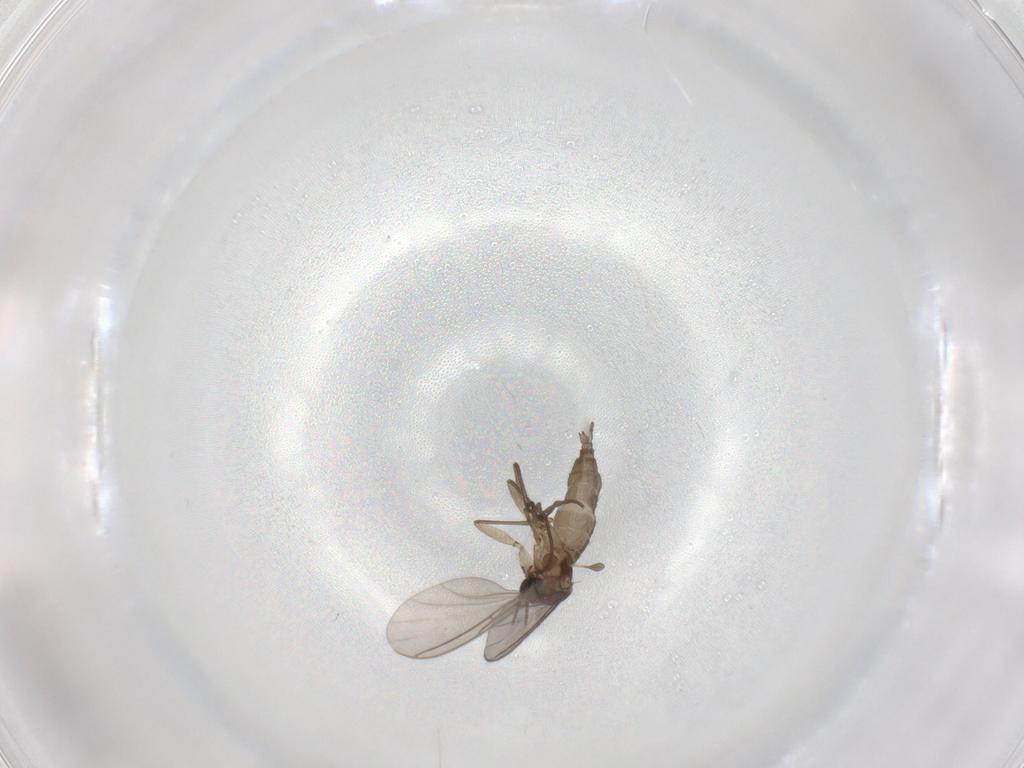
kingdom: Animalia
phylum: Arthropoda
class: Insecta
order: Diptera
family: Sciaridae
